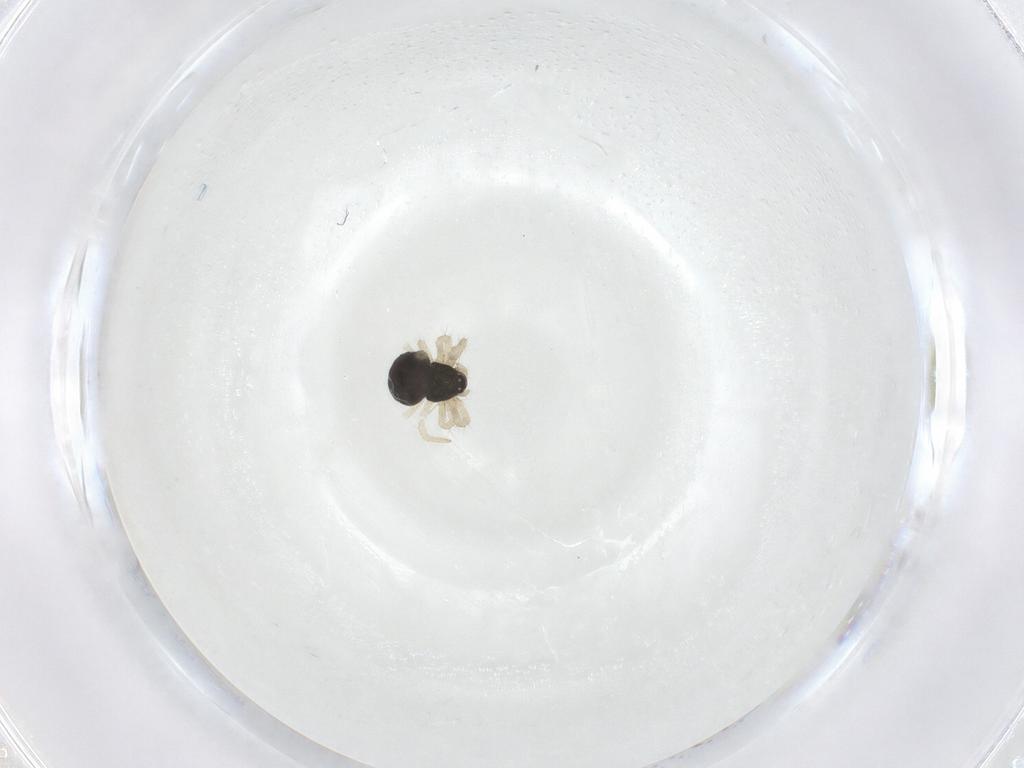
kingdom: Animalia
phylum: Arthropoda
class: Arachnida
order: Araneae
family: Theridiidae
